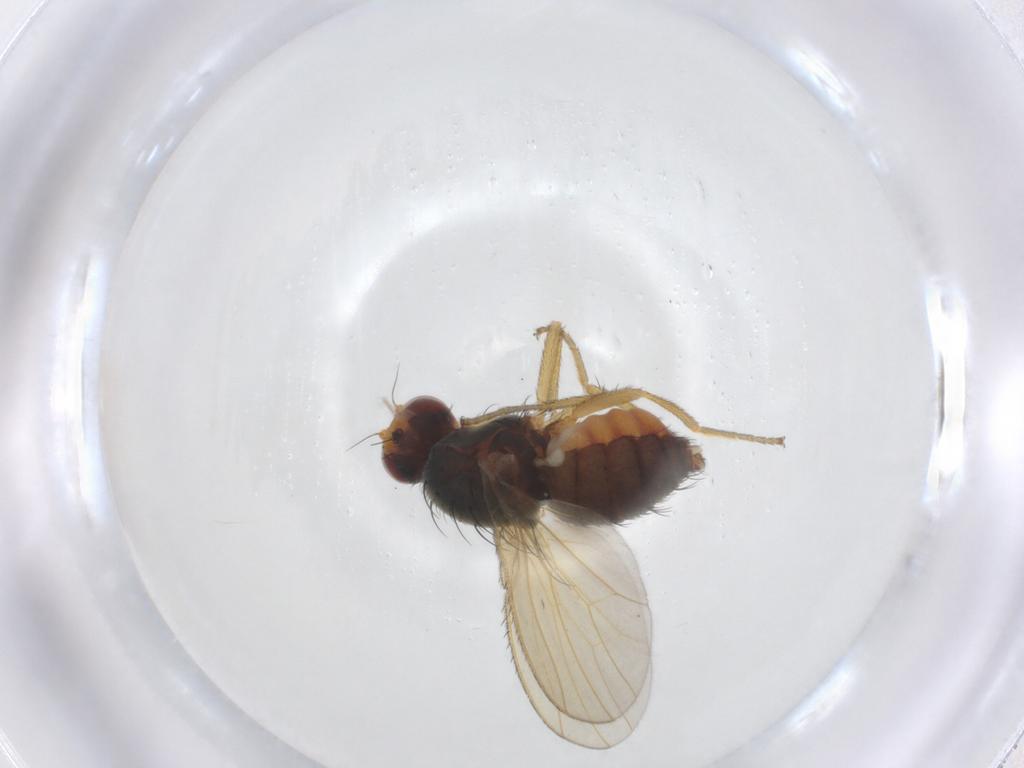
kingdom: Animalia
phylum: Arthropoda
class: Insecta
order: Diptera
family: Heleomyzidae
